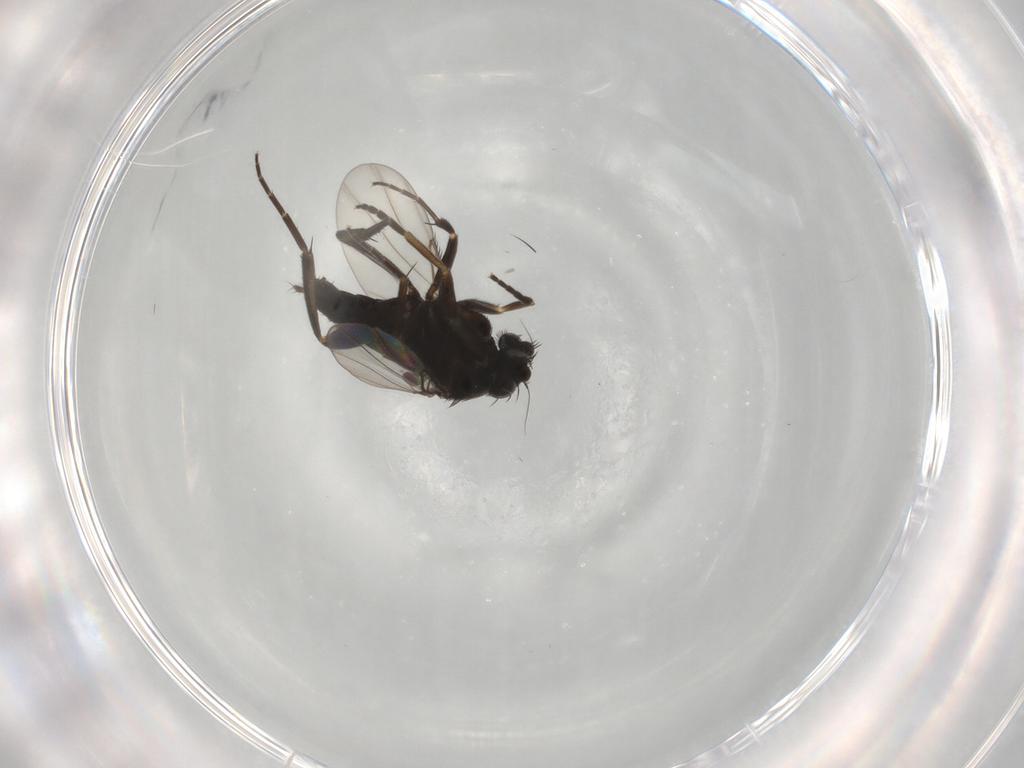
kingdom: Animalia
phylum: Arthropoda
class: Insecta
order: Diptera
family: Phoridae
